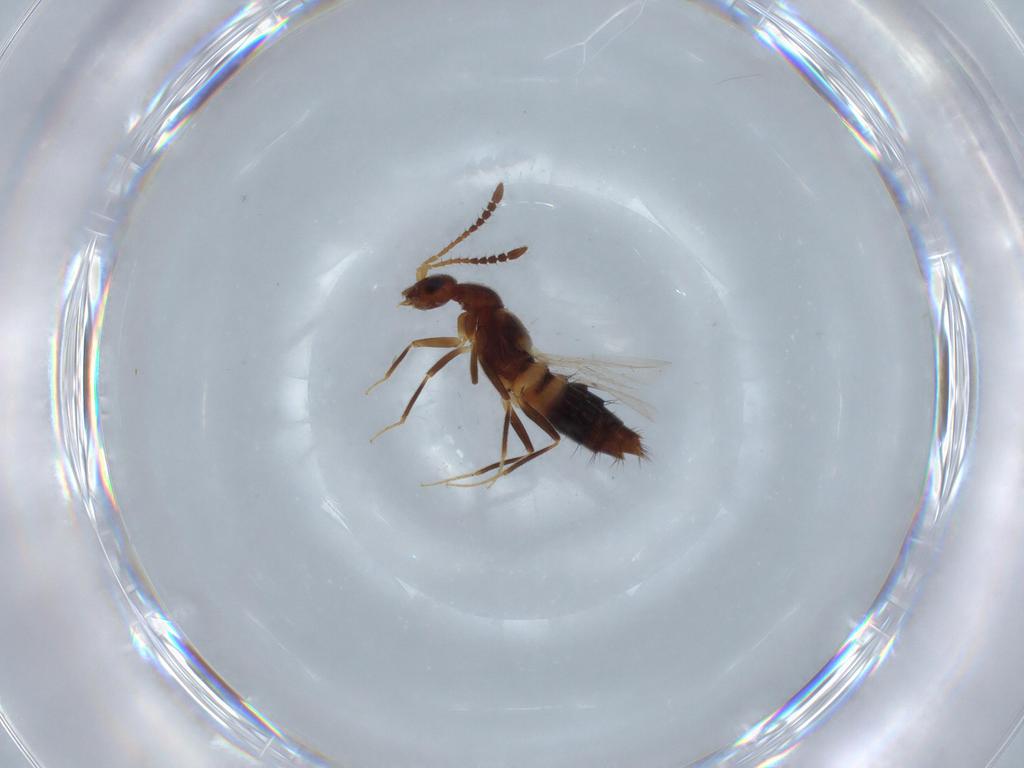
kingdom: Animalia
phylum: Arthropoda
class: Insecta
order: Coleoptera
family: Staphylinidae
